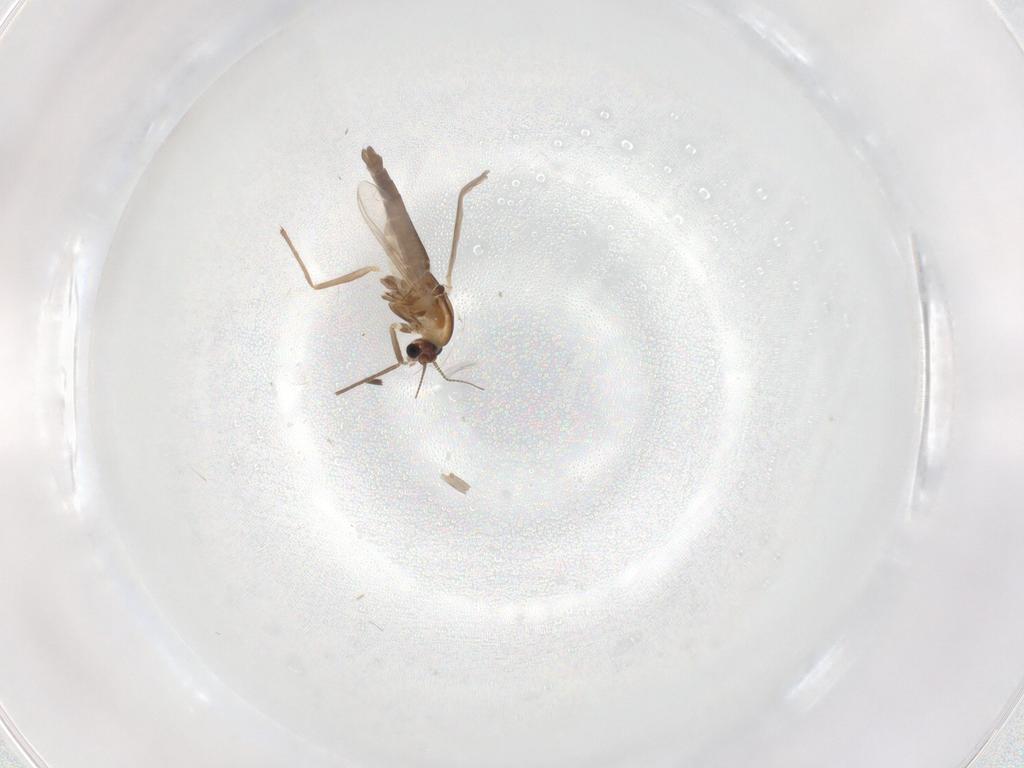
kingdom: Animalia
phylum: Arthropoda
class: Insecta
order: Diptera
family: Chironomidae
